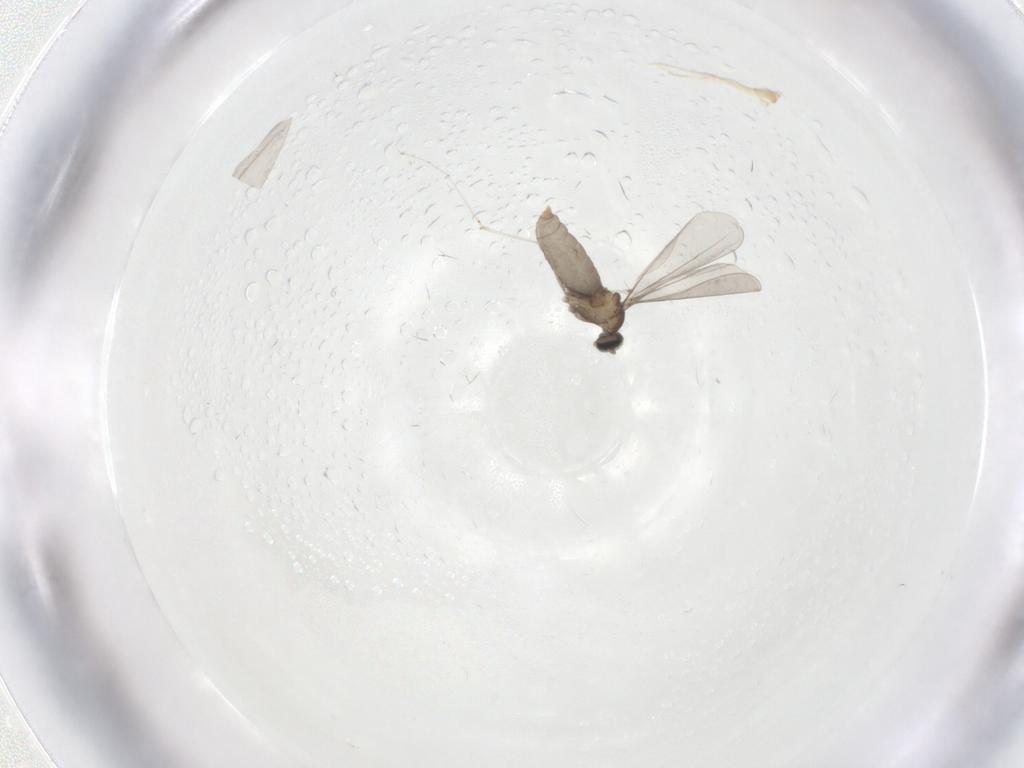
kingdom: Animalia
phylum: Arthropoda
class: Insecta
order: Diptera
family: Cecidomyiidae
